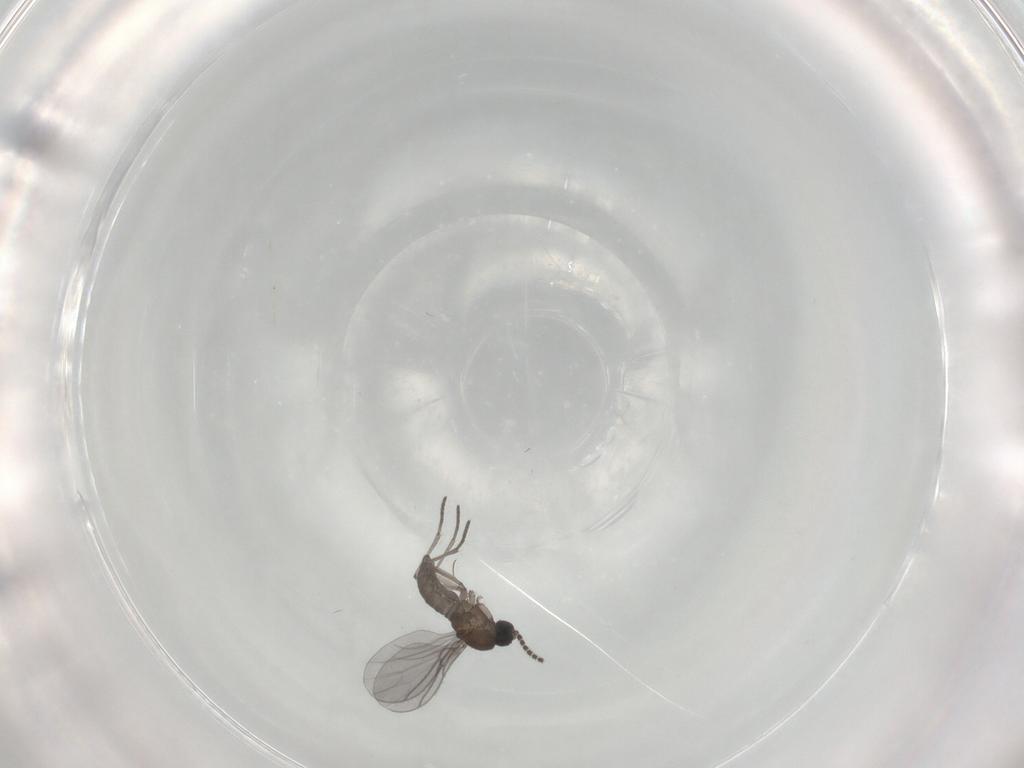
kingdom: Animalia
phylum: Arthropoda
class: Insecta
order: Diptera
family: Sciaridae
